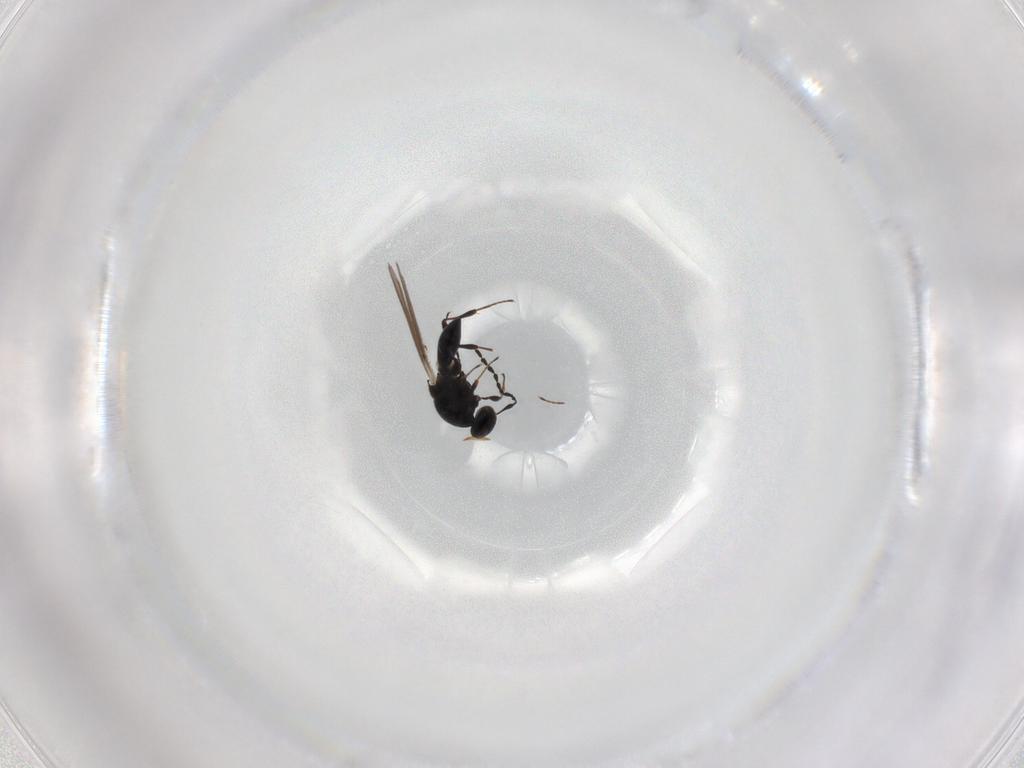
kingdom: Animalia
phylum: Arthropoda
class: Insecta
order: Hymenoptera
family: Platygastridae
